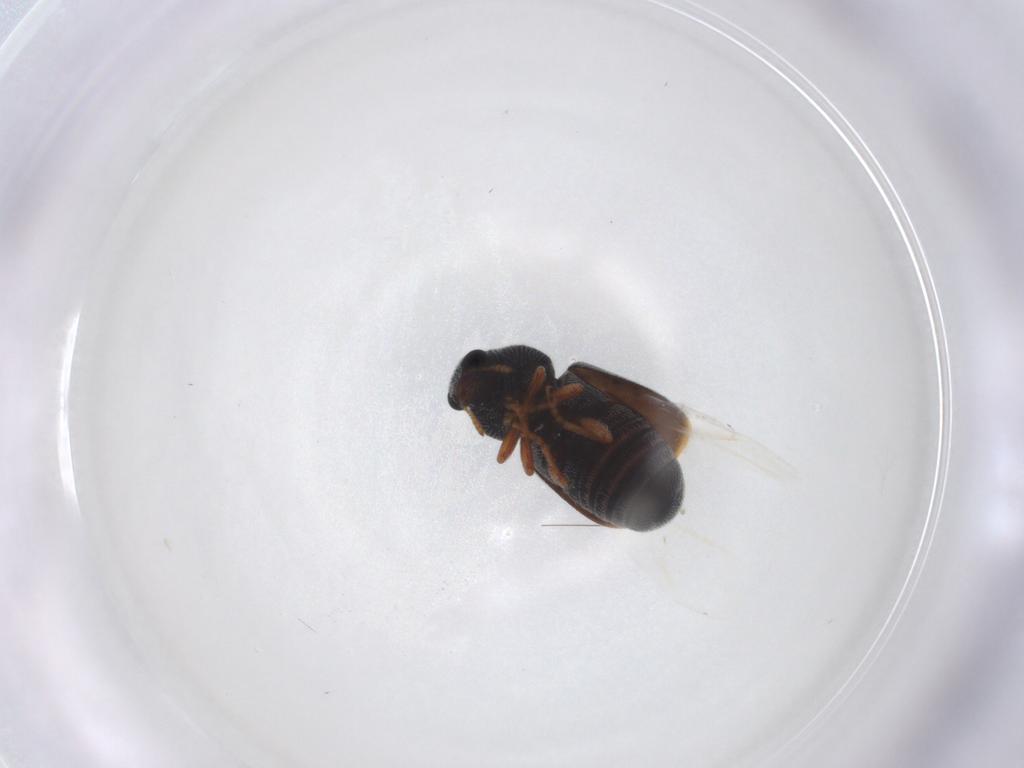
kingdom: Animalia
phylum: Arthropoda
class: Insecta
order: Coleoptera
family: Anthribidae
